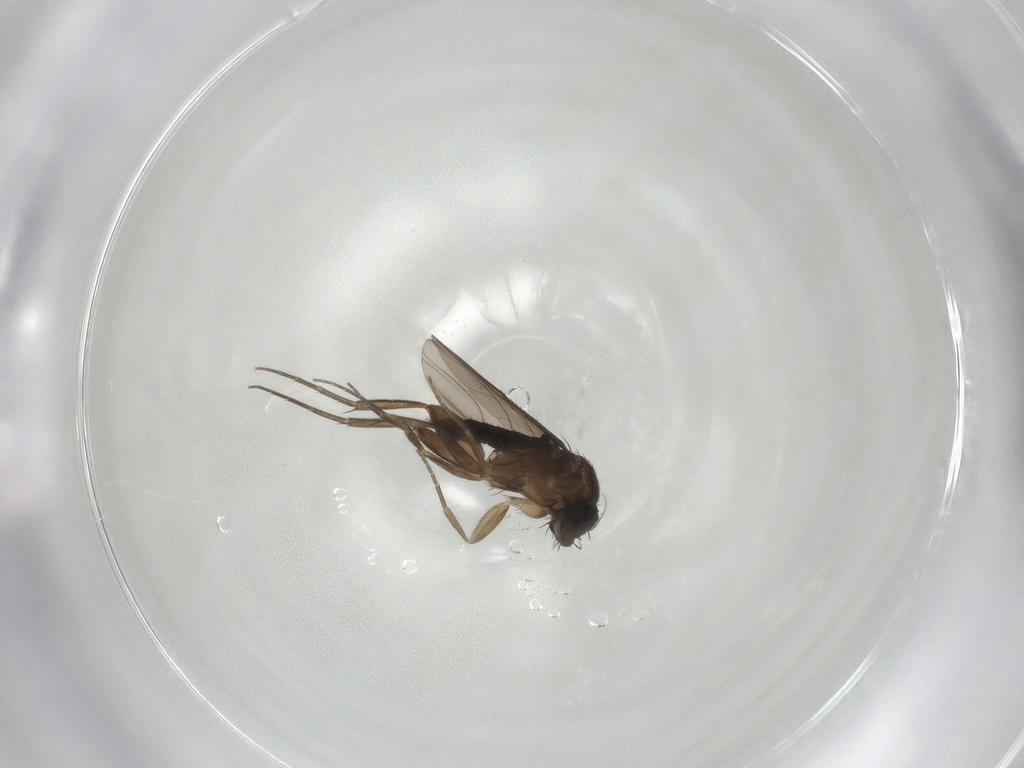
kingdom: Animalia
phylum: Arthropoda
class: Insecta
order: Diptera
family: Phoridae
